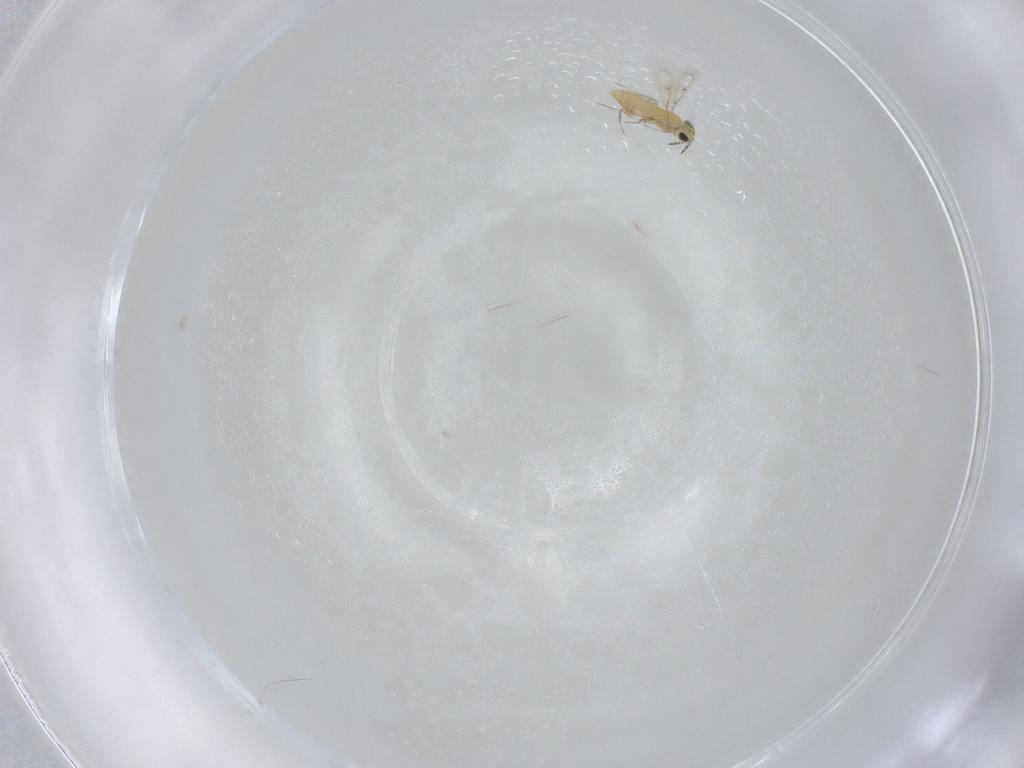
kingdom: Animalia
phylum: Arthropoda
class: Insecta
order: Hymenoptera
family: Trichogrammatidae
